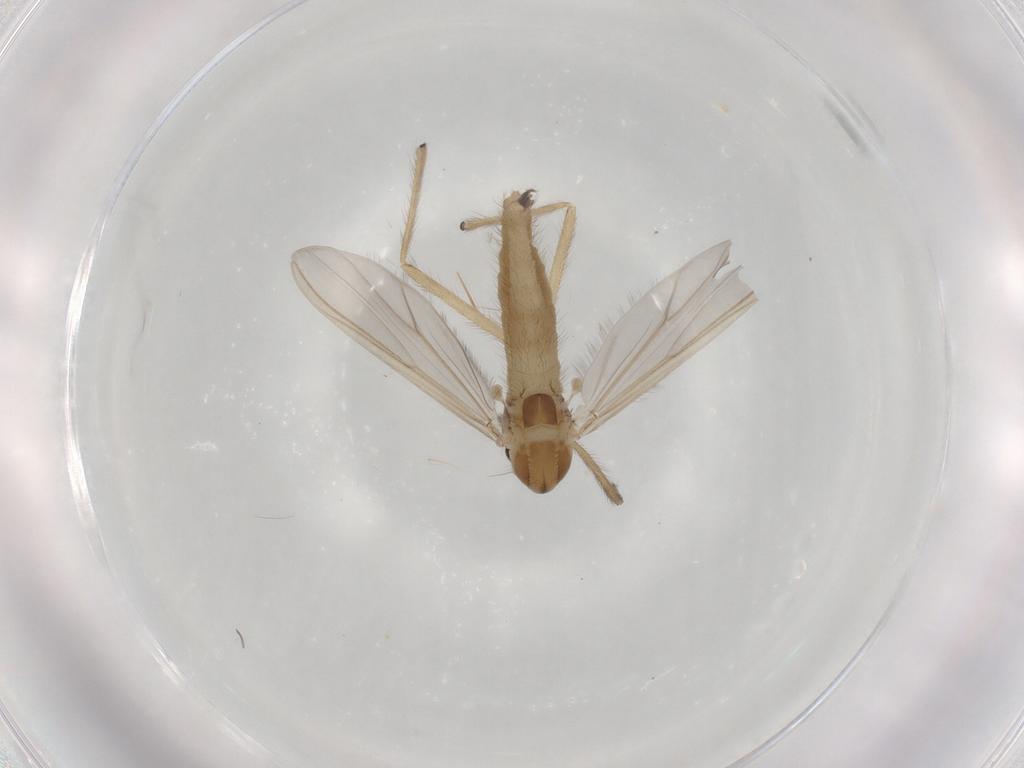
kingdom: Animalia
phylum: Arthropoda
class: Insecta
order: Diptera
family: Chironomidae
